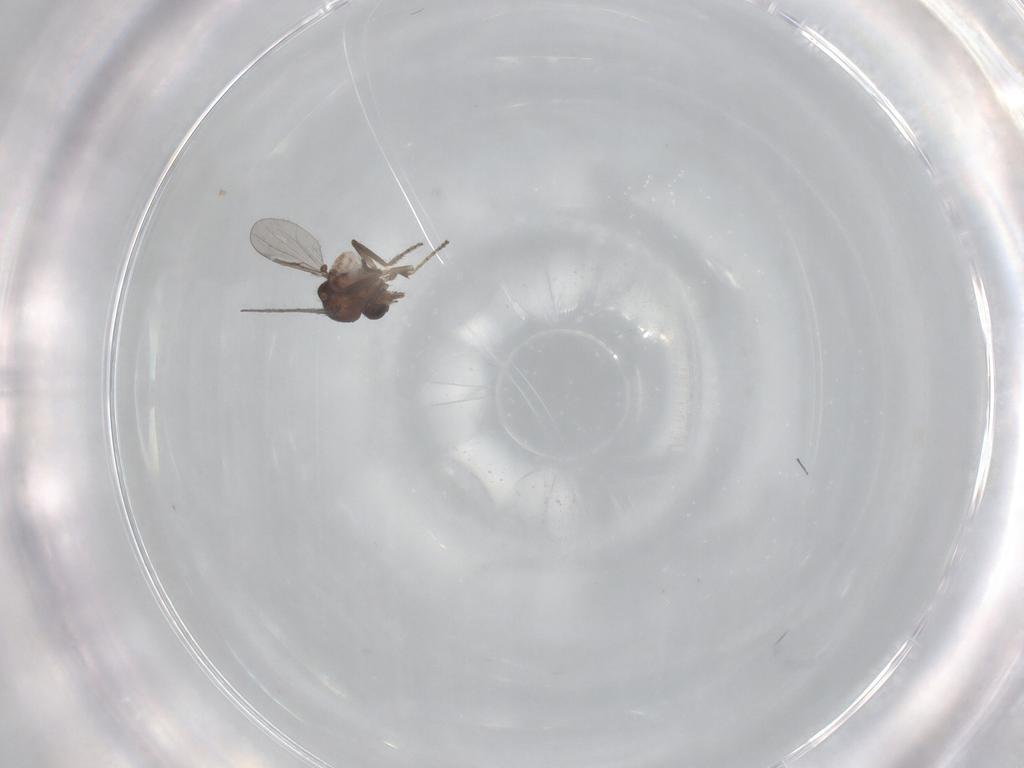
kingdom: Animalia
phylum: Arthropoda
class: Insecta
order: Diptera
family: Ceratopogonidae
